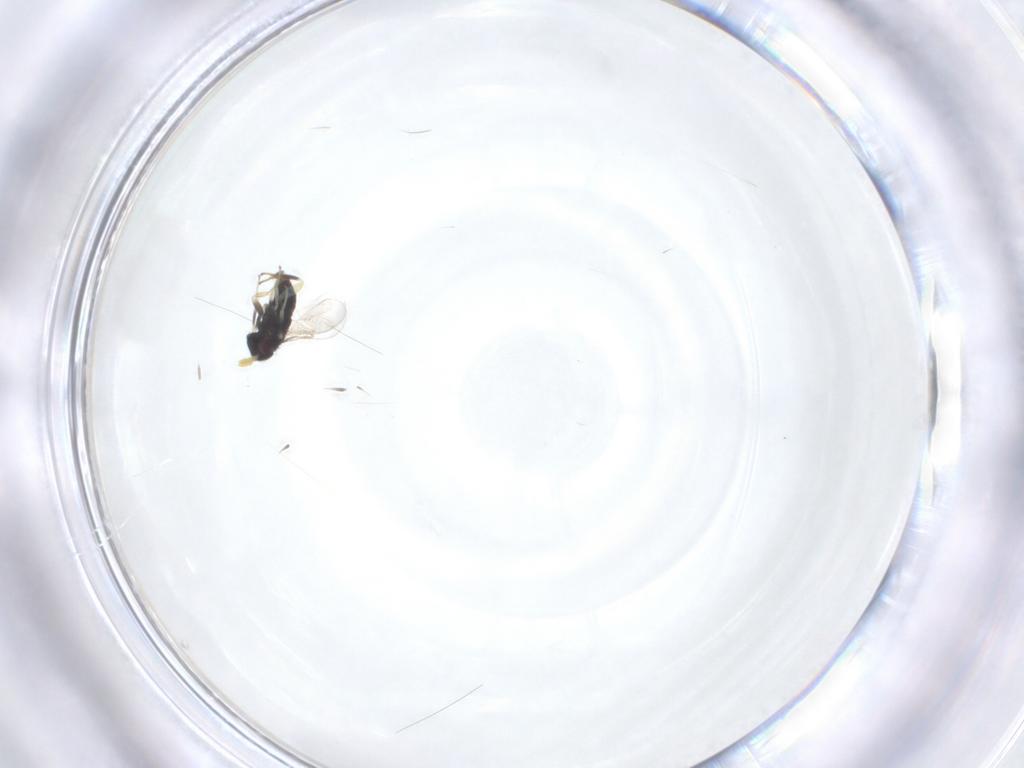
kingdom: Animalia
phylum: Arthropoda
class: Insecta
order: Hymenoptera
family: Aphelinidae
